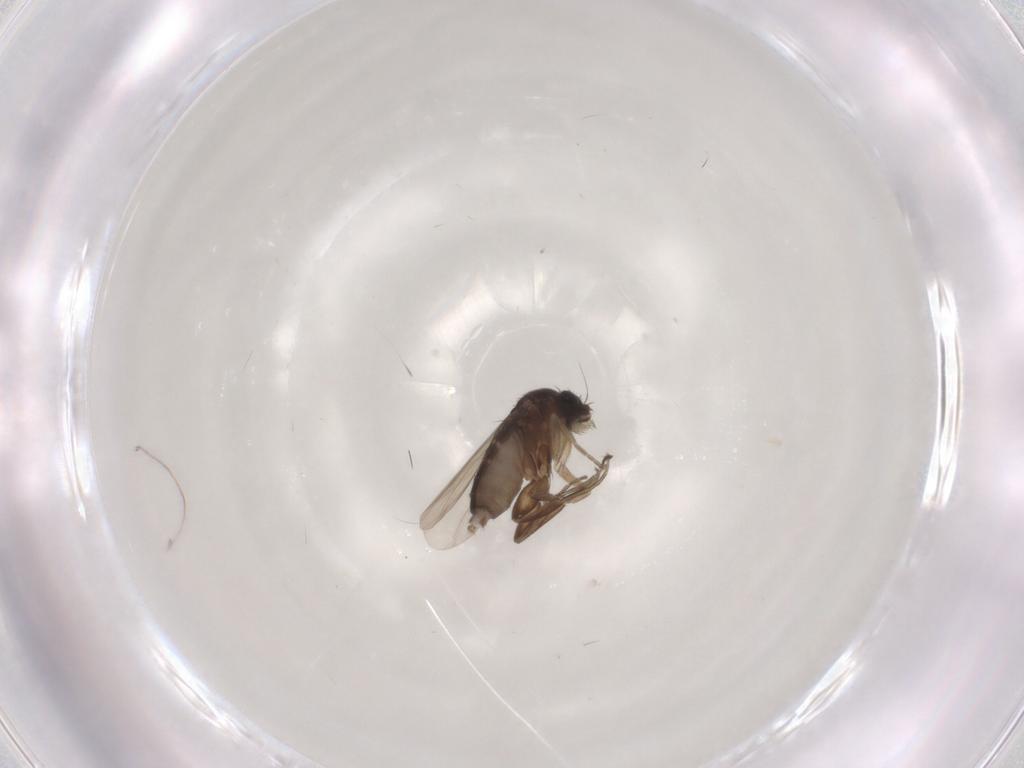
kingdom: Animalia
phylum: Arthropoda
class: Insecta
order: Diptera
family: Phoridae
